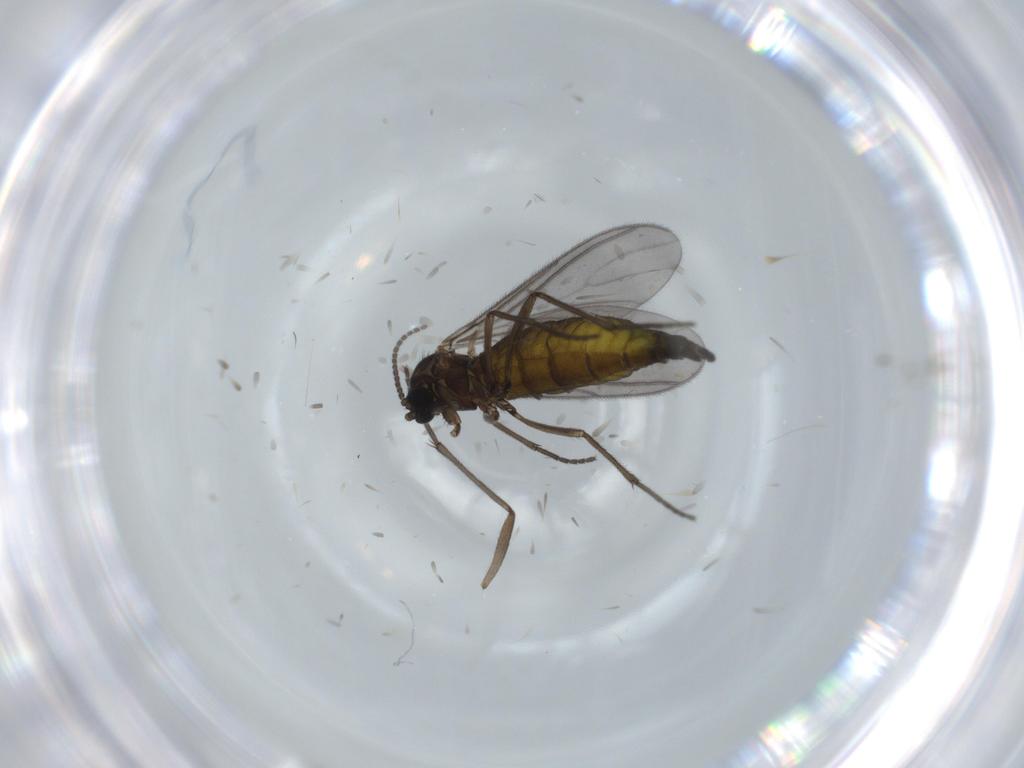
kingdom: Animalia
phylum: Arthropoda
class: Insecta
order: Diptera
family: Sciaridae
